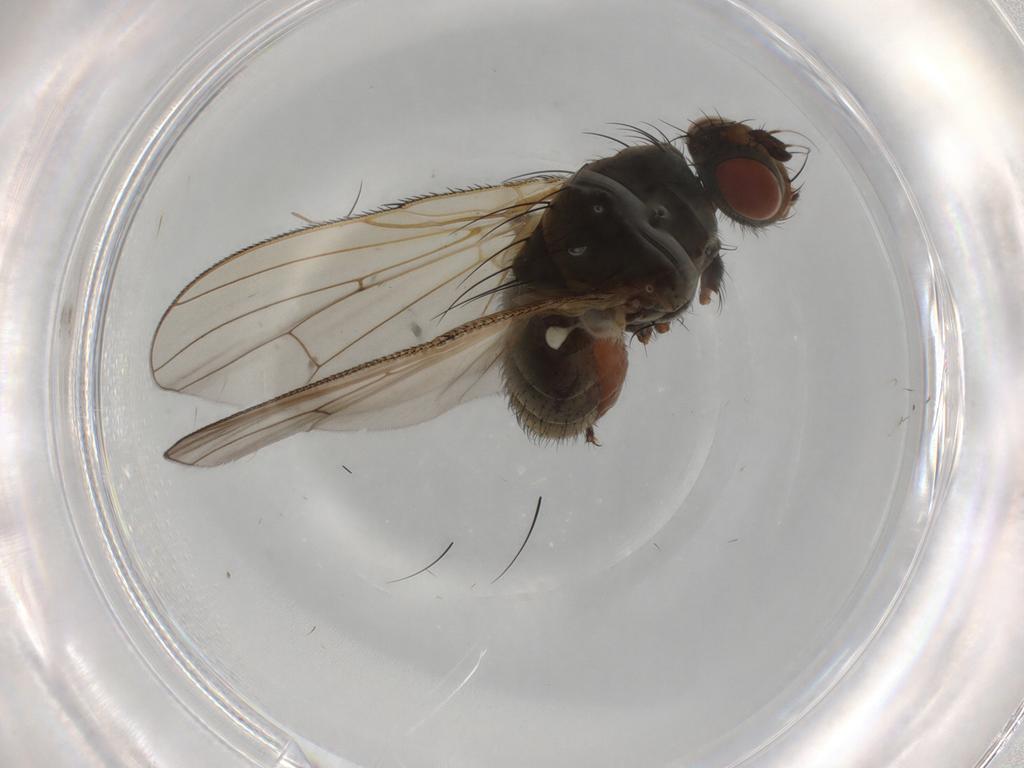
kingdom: Animalia
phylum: Arthropoda
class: Insecta
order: Diptera
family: Anthomyiidae
